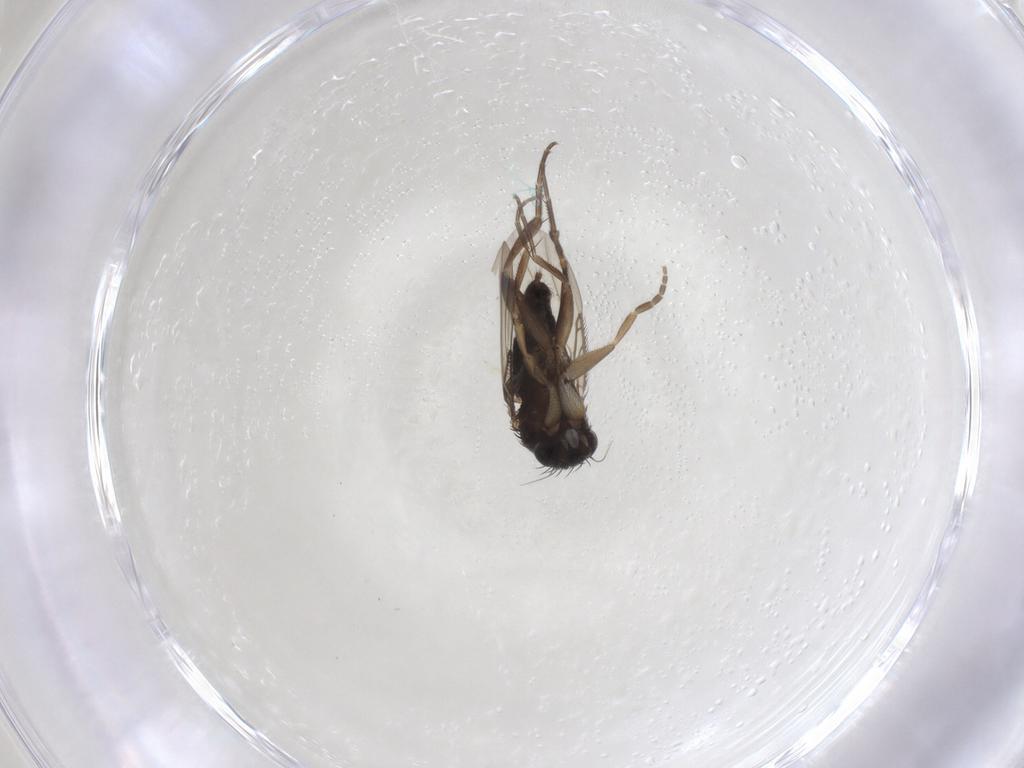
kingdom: Animalia
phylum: Arthropoda
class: Insecta
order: Diptera
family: Phoridae
